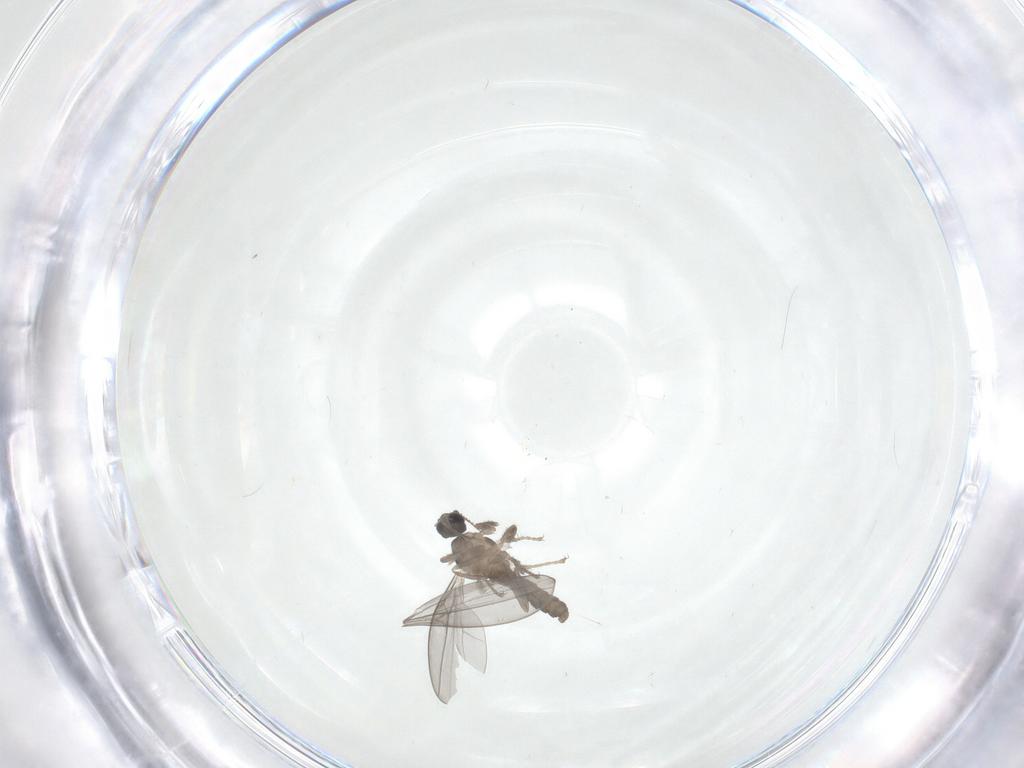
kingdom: Animalia
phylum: Arthropoda
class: Insecta
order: Diptera
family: Cecidomyiidae
